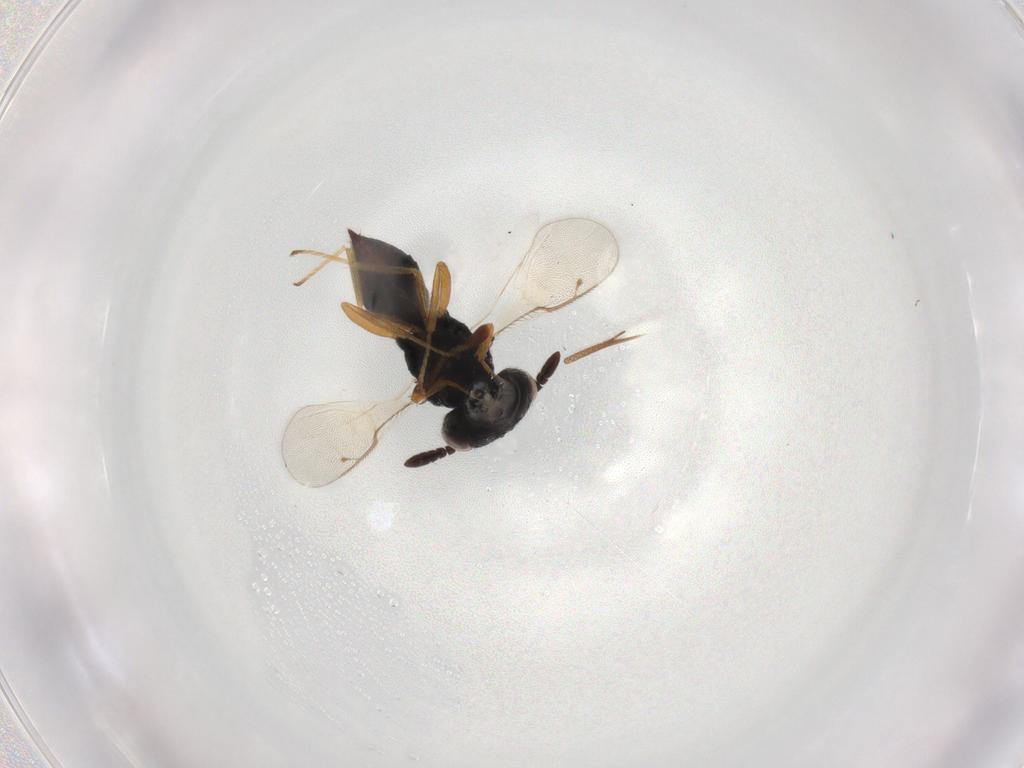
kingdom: Animalia
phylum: Arthropoda
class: Insecta
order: Hymenoptera
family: Pteromalidae
